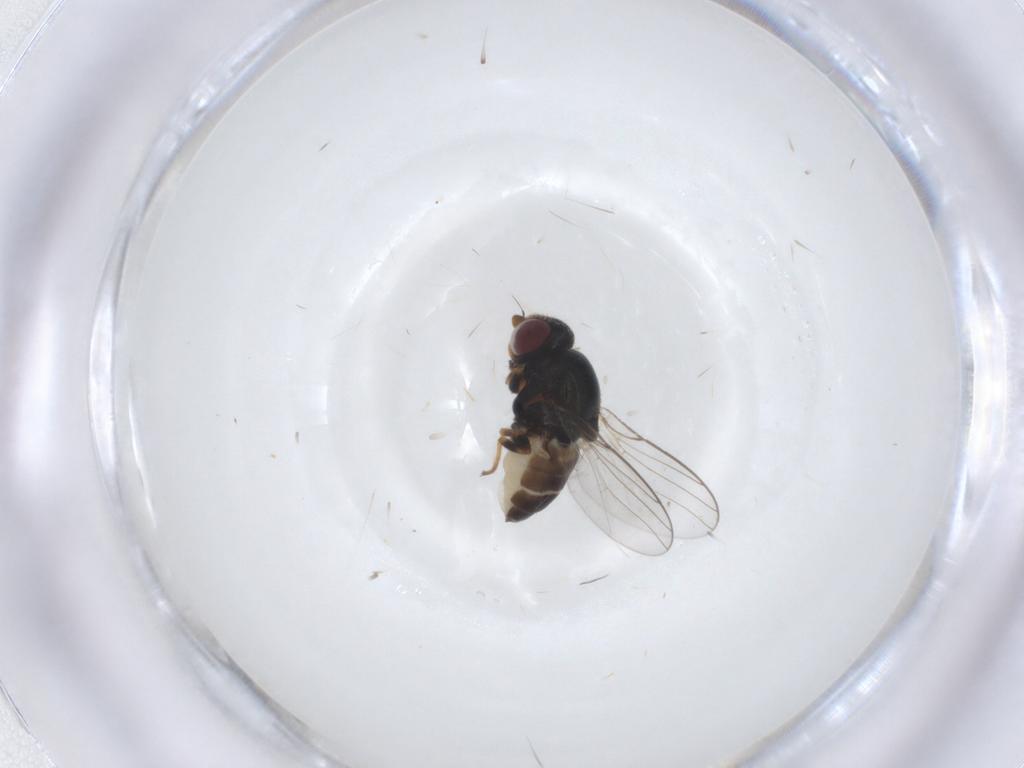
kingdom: Animalia
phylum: Arthropoda
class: Insecta
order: Diptera
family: Chloropidae
